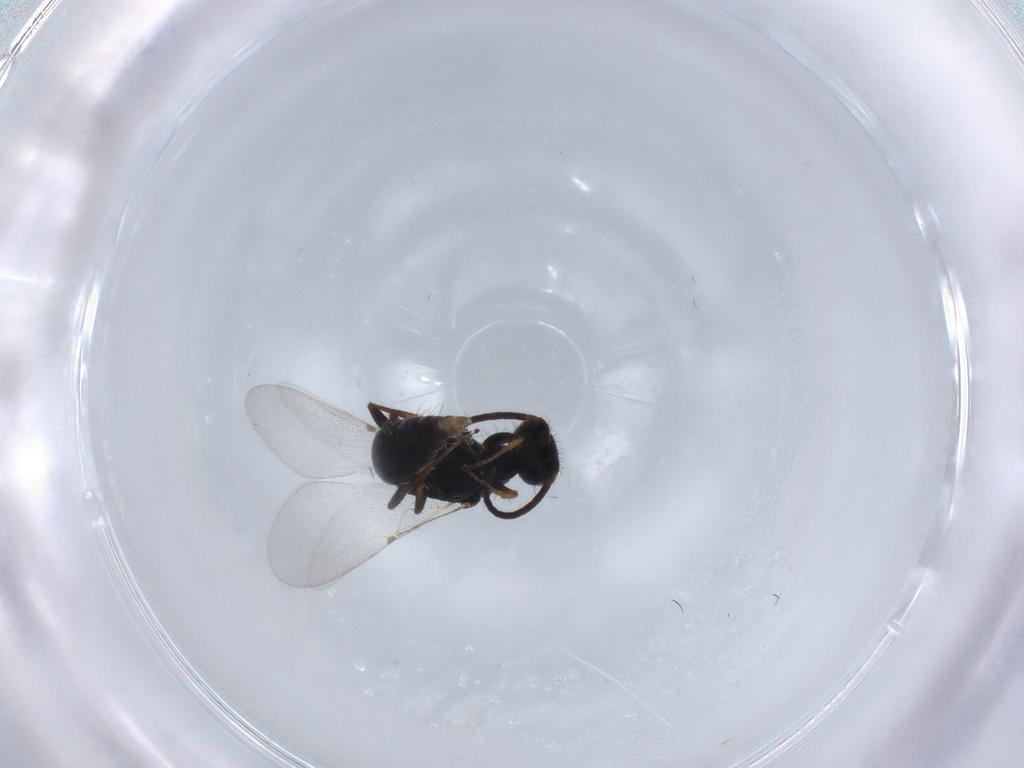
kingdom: Animalia
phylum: Arthropoda
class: Insecta
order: Hymenoptera
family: Bethylidae
